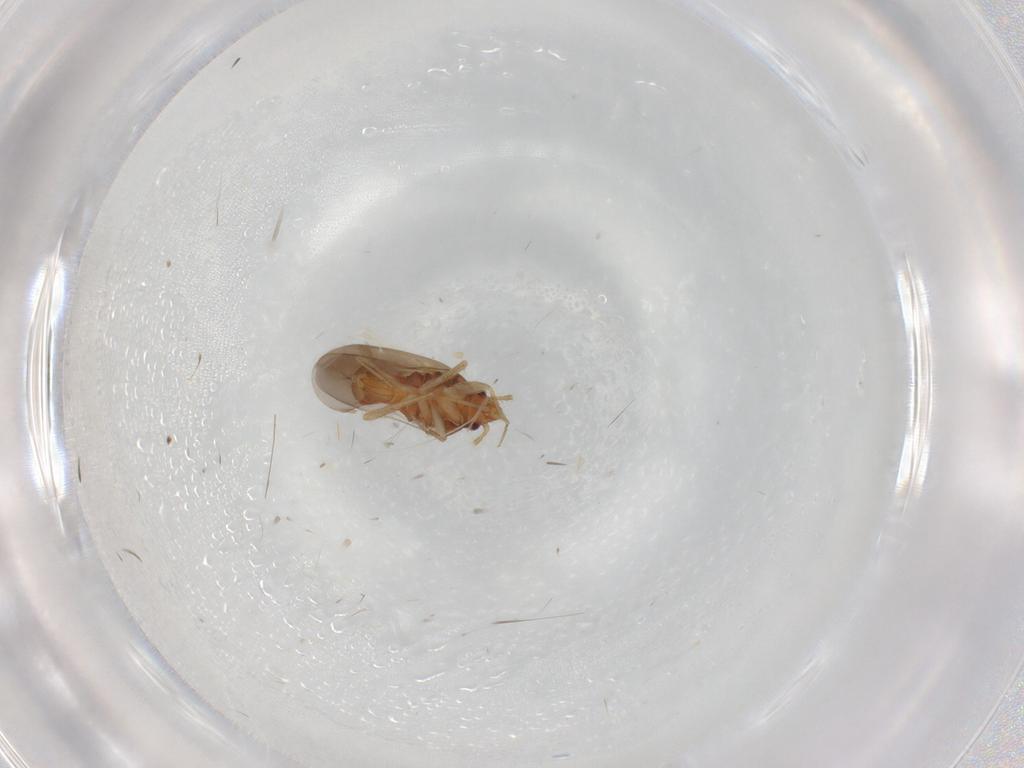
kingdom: Animalia
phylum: Arthropoda
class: Insecta
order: Hemiptera
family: Ceratocombidae
